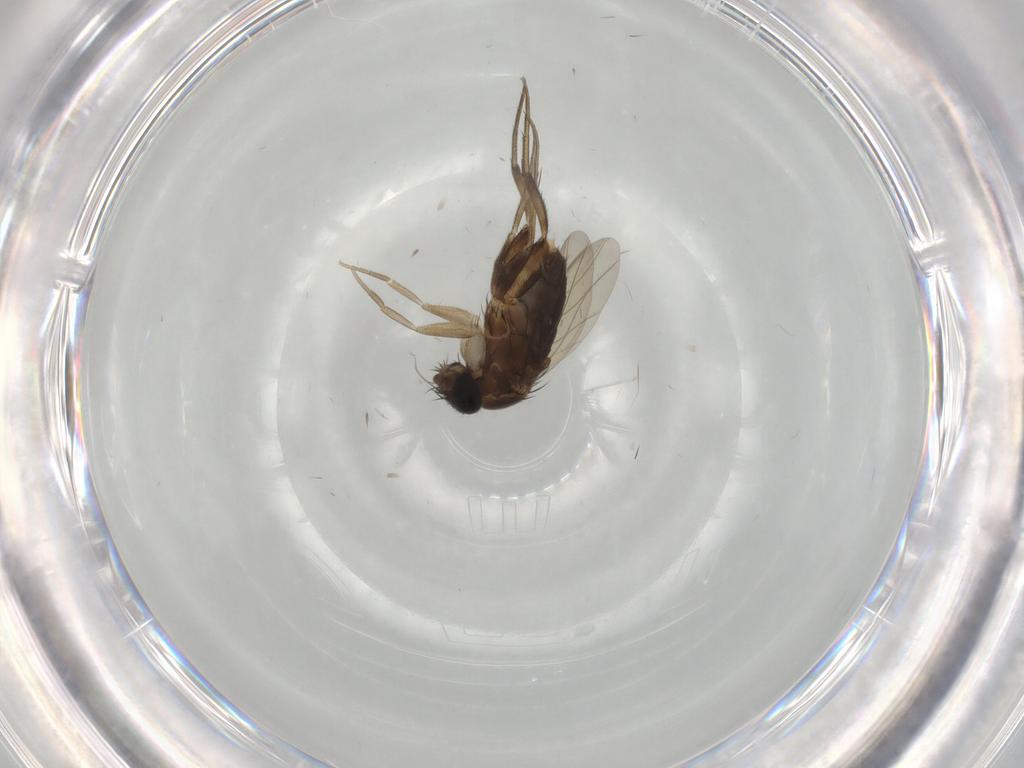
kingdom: Animalia
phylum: Arthropoda
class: Insecta
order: Diptera
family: Phoridae
